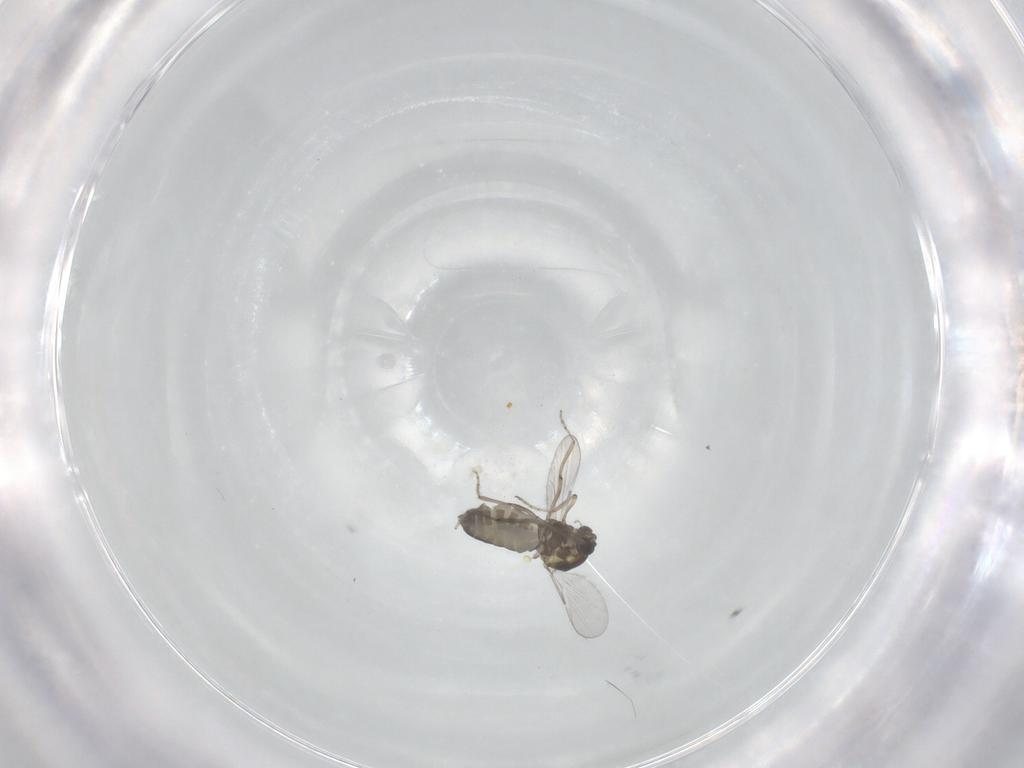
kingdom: Animalia
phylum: Arthropoda
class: Insecta
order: Diptera
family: Ceratopogonidae
